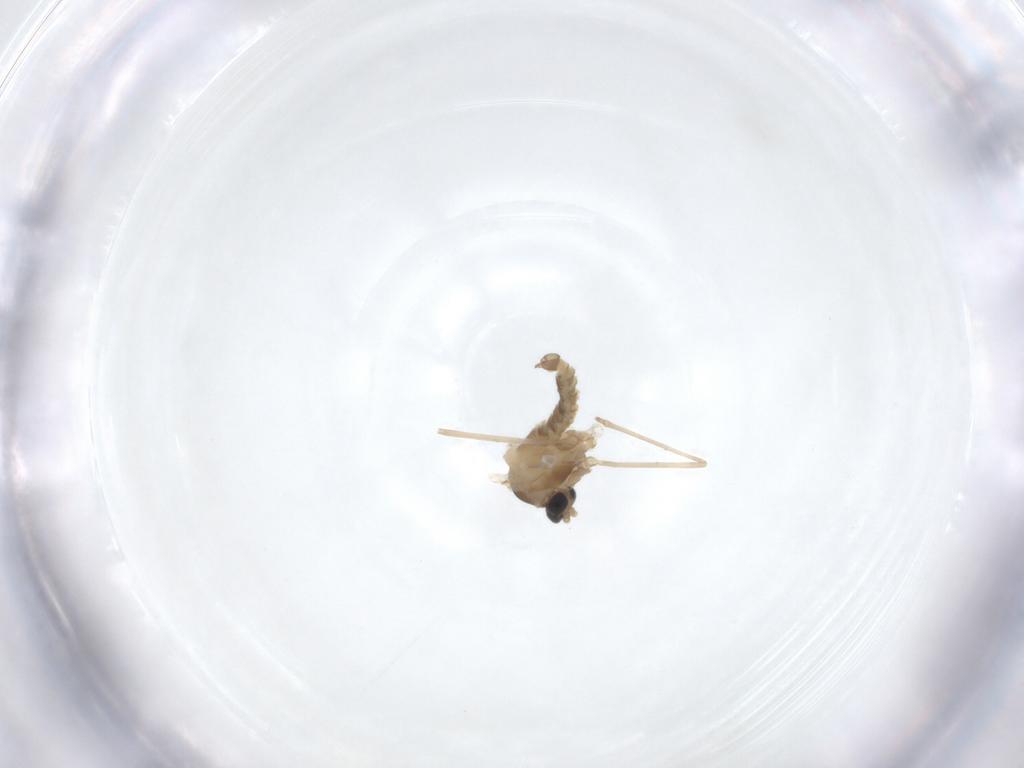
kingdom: Animalia
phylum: Arthropoda
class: Insecta
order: Diptera
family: Cecidomyiidae
